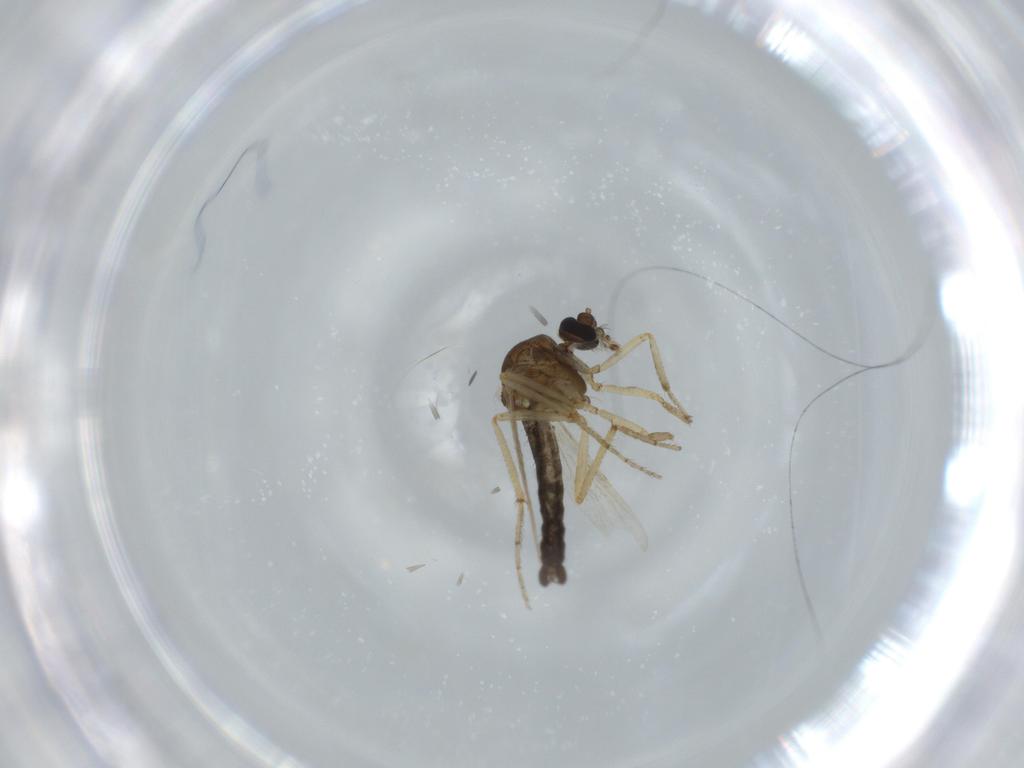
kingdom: Animalia
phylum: Arthropoda
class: Insecta
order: Diptera
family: Ceratopogonidae
